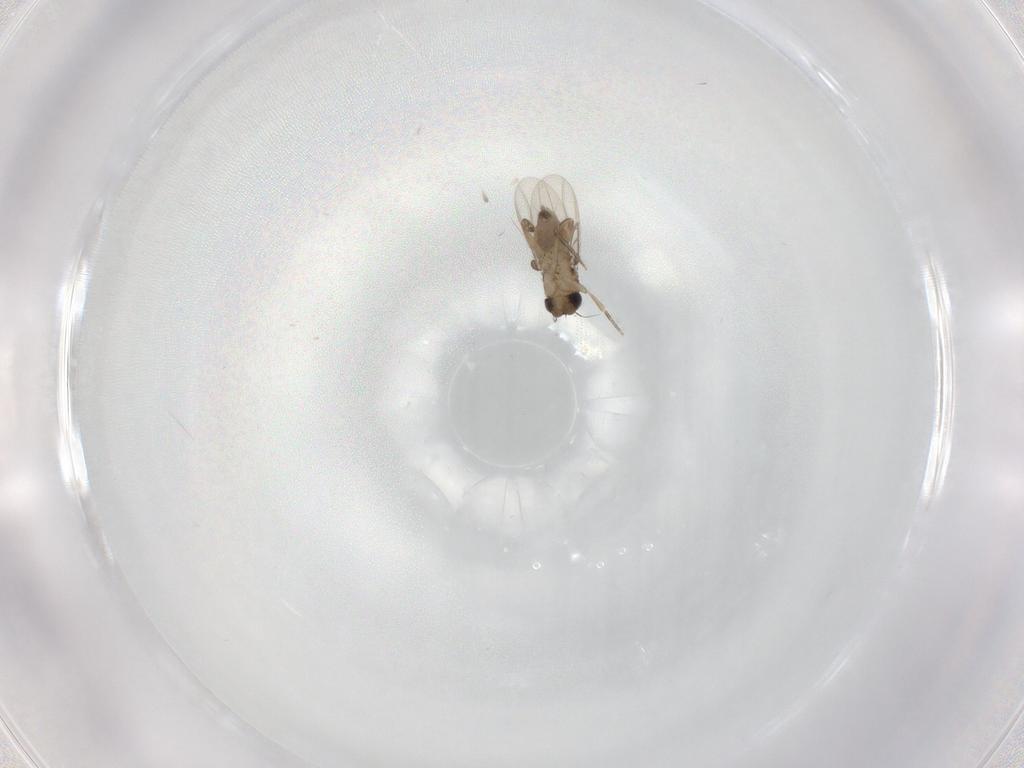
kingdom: Animalia
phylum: Arthropoda
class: Insecta
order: Diptera
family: Phoridae
